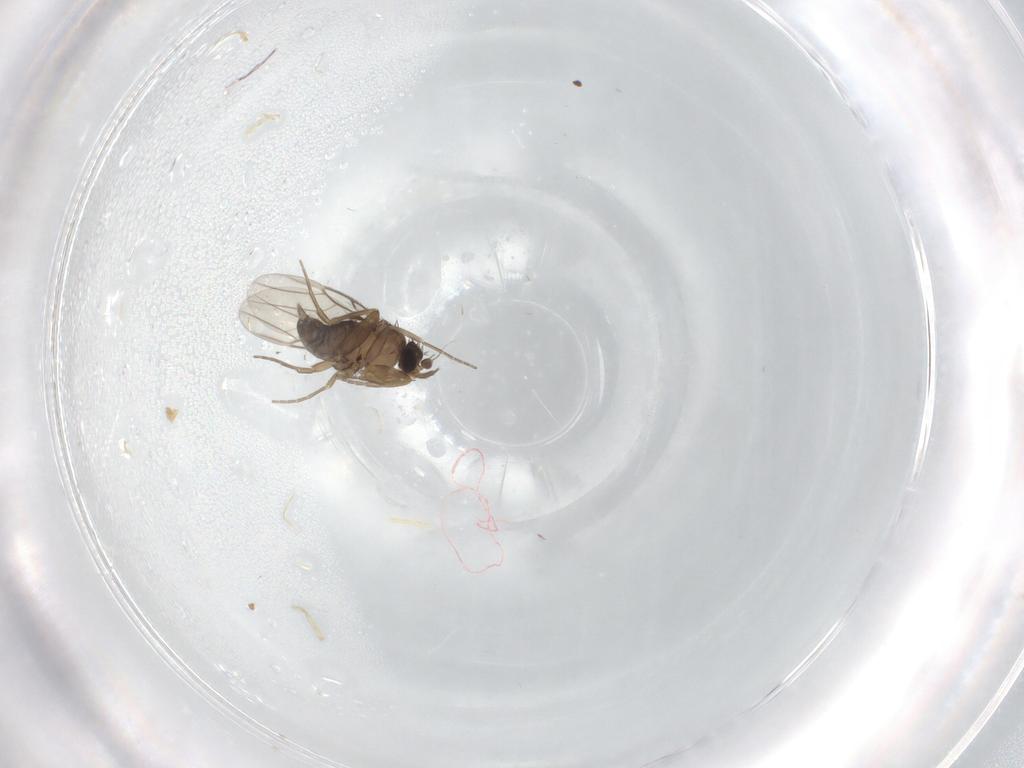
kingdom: Animalia
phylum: Arthropoda
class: Insecta
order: Diptera
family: Phoridae
